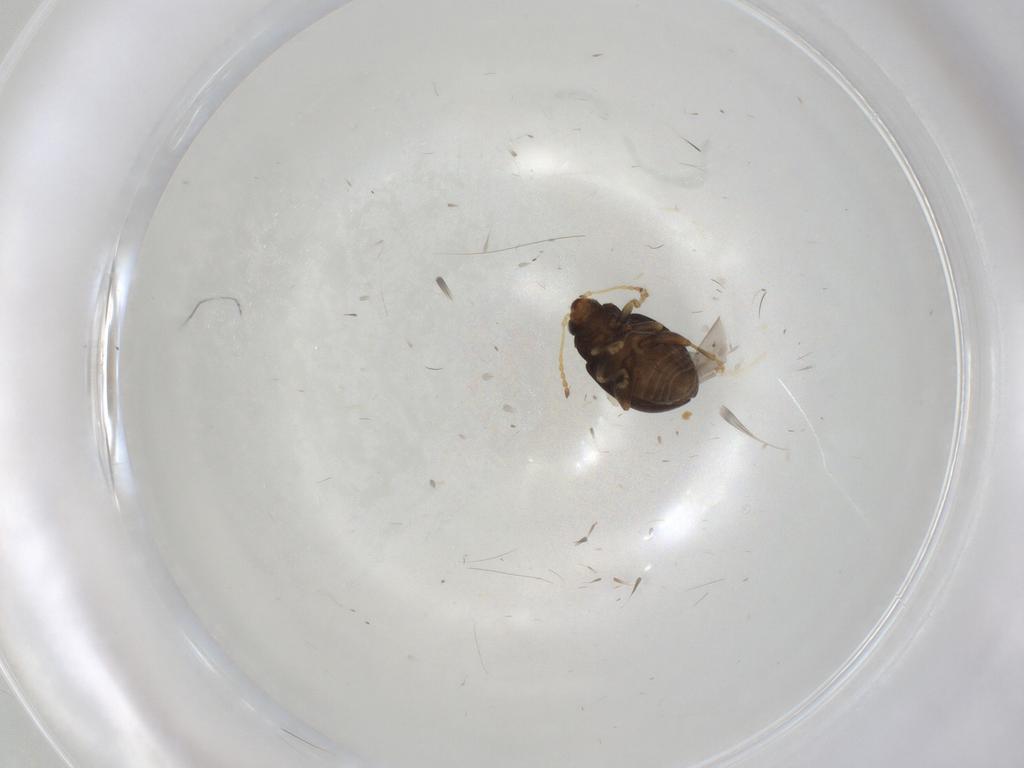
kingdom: Animalia
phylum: Arthropoda
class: Insecta
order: Coleoptera
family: Chrysomelidae
